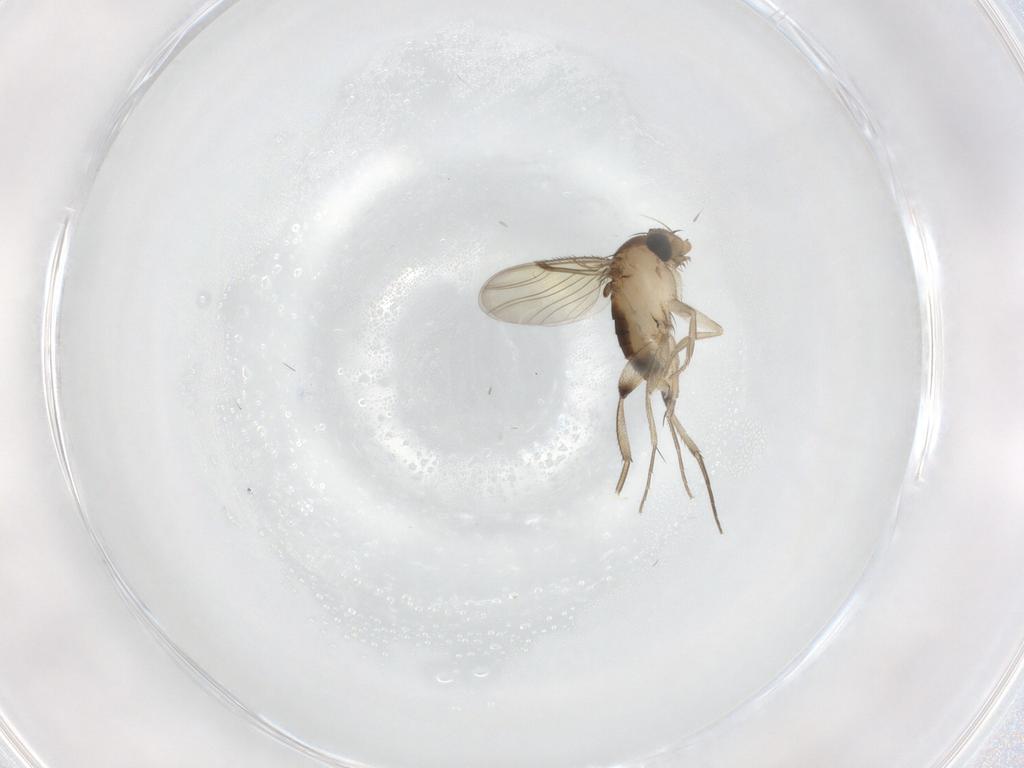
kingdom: Animalia
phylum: Arthropoda
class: Insecta
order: Diptera
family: Phoridae
